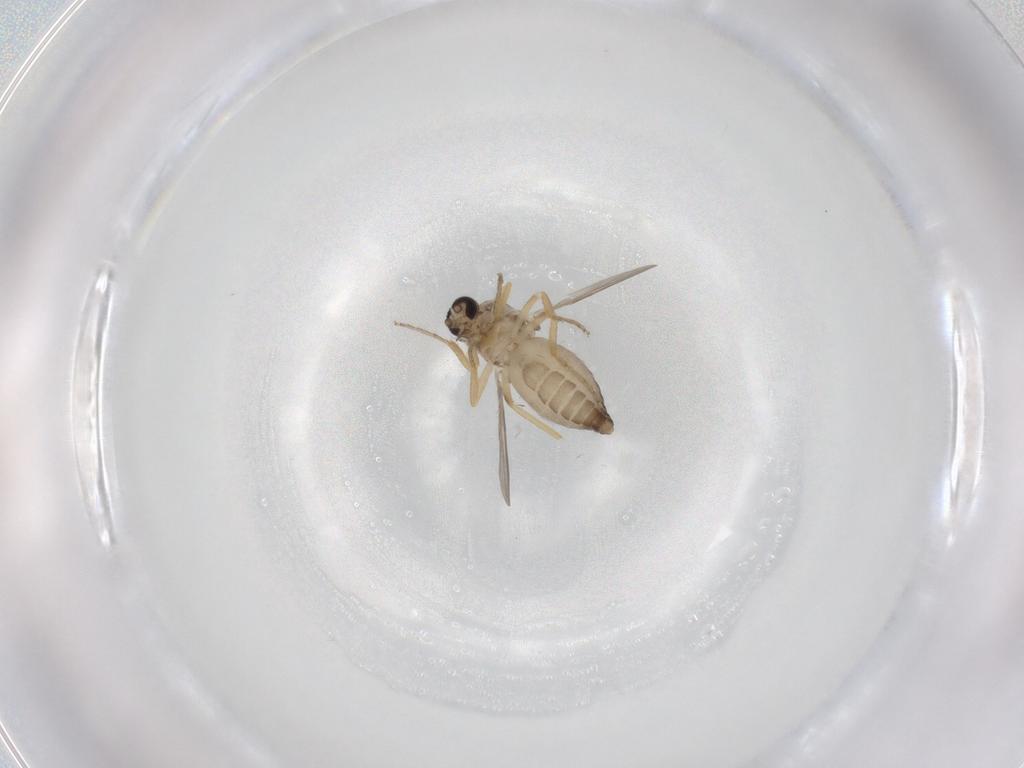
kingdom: Animalia
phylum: Arthropoda
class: Insecta
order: Diptera
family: Ceratopogonidae
